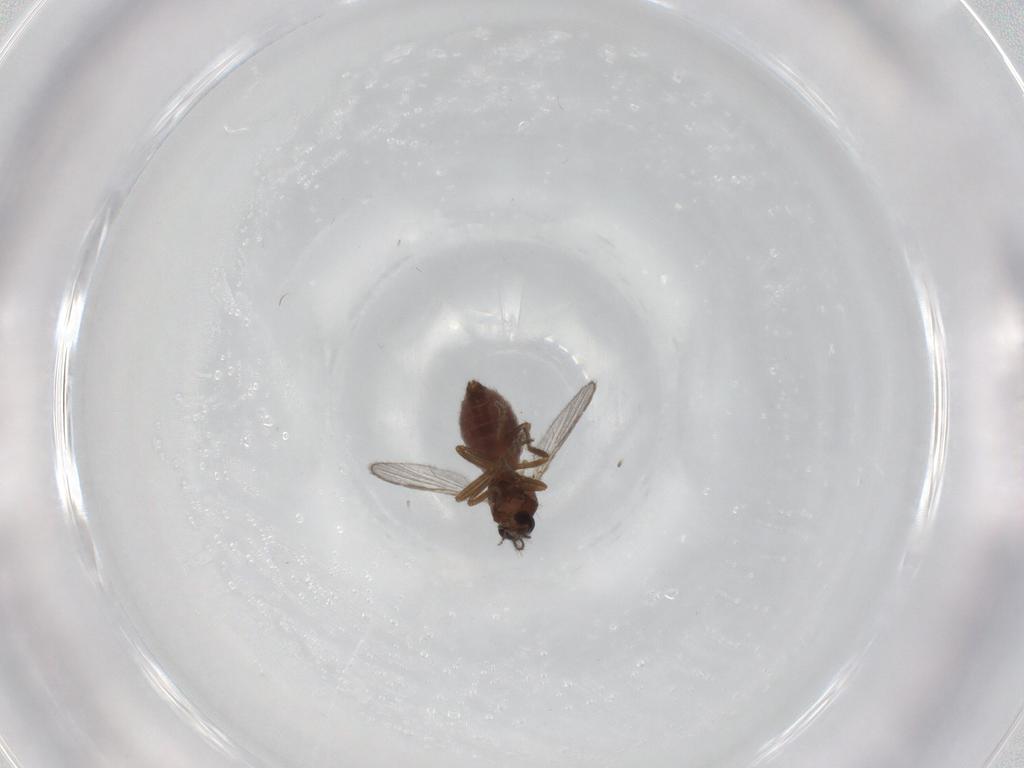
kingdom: Animalia
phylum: Arthropoda
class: Insecta
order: Diptera
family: Ceratopogonidae
